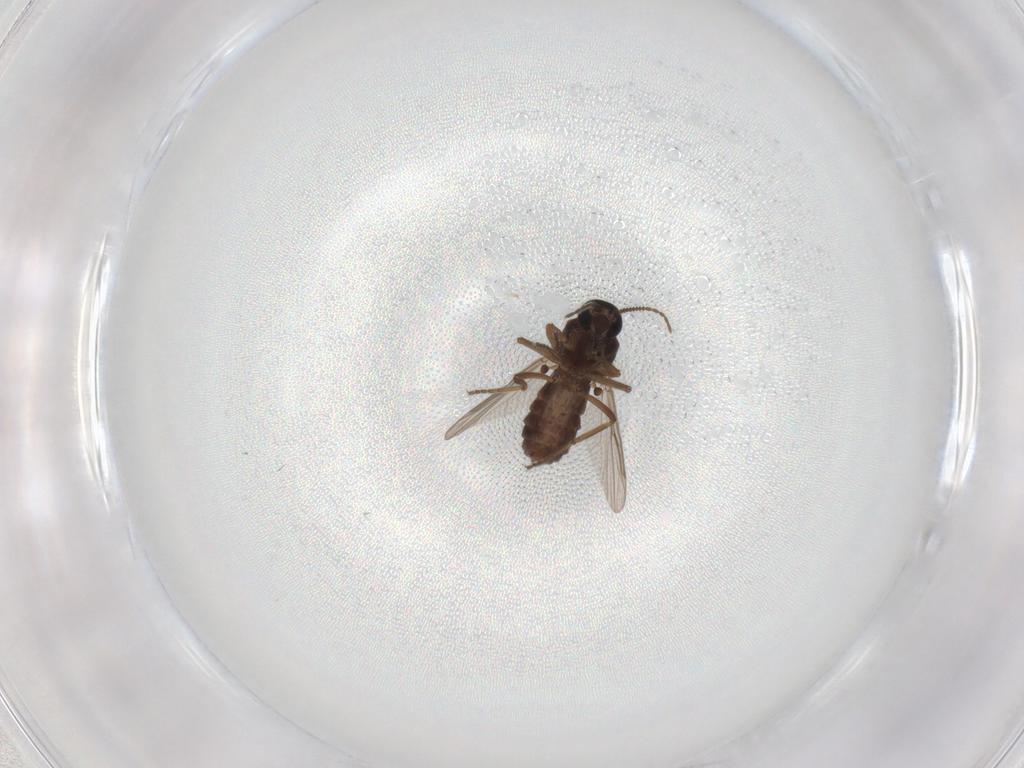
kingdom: Animalia
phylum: Arthropoda
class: Insecta
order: Diptera
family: Ceratopogonidae
